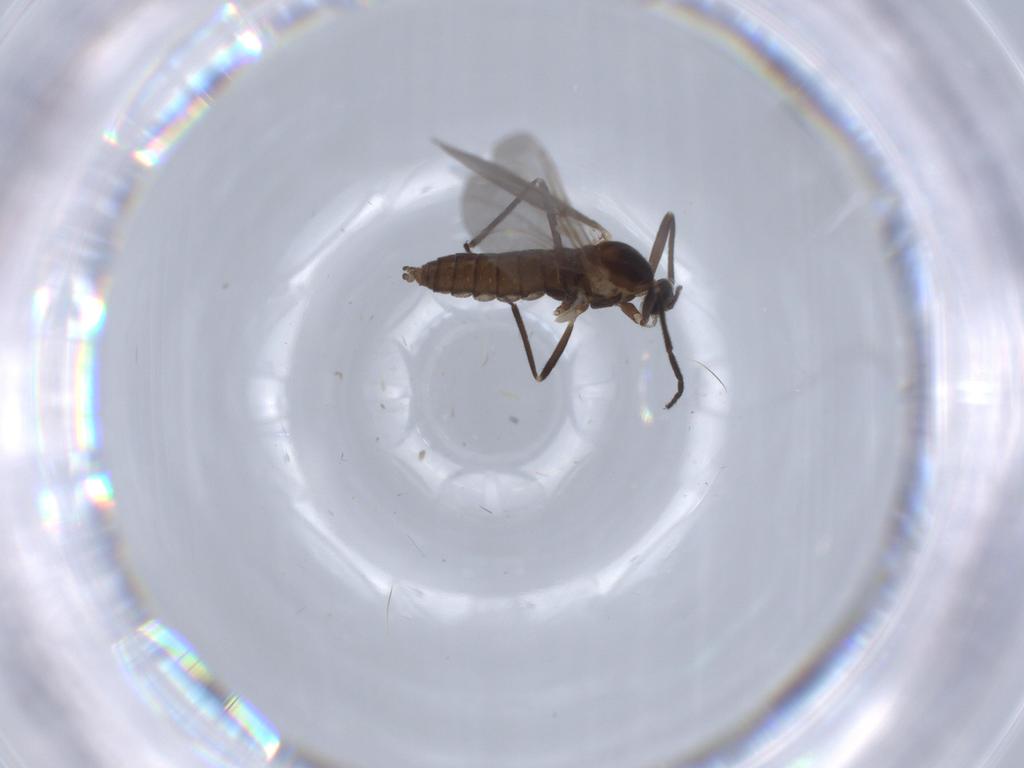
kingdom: Animalia
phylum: Arthropoda
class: Insecta
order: Diptera
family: Cecidomyiidae
